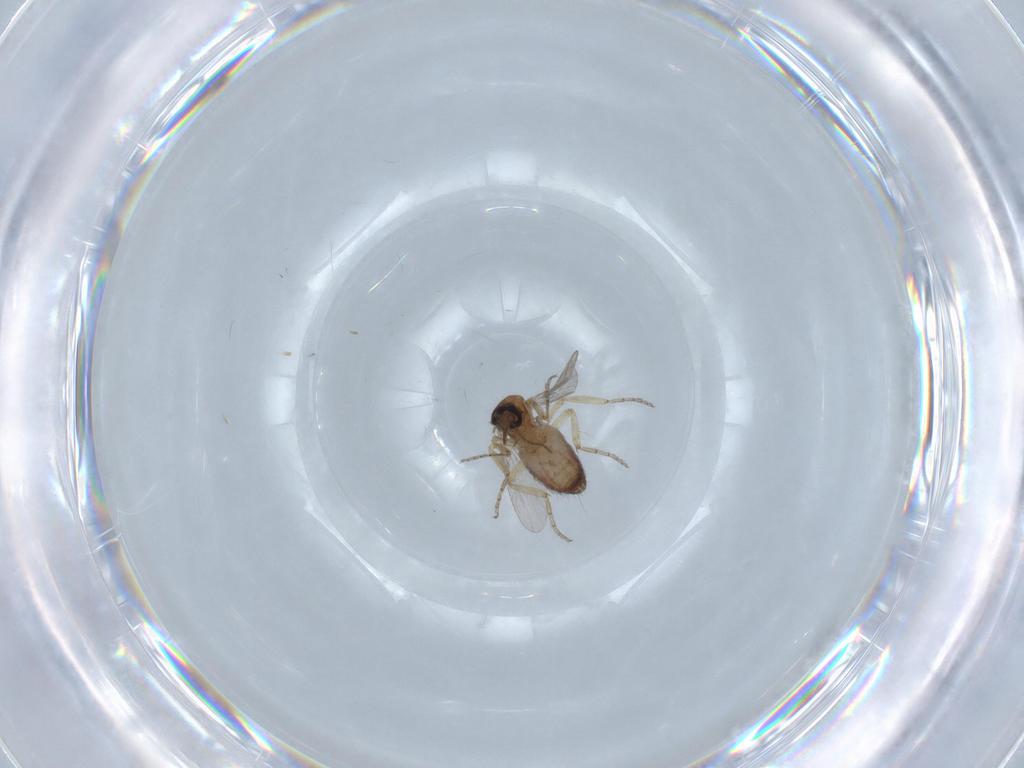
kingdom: Animalia
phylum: Arthropoda
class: Insecta
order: Diptera
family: Ceratopogonidae
